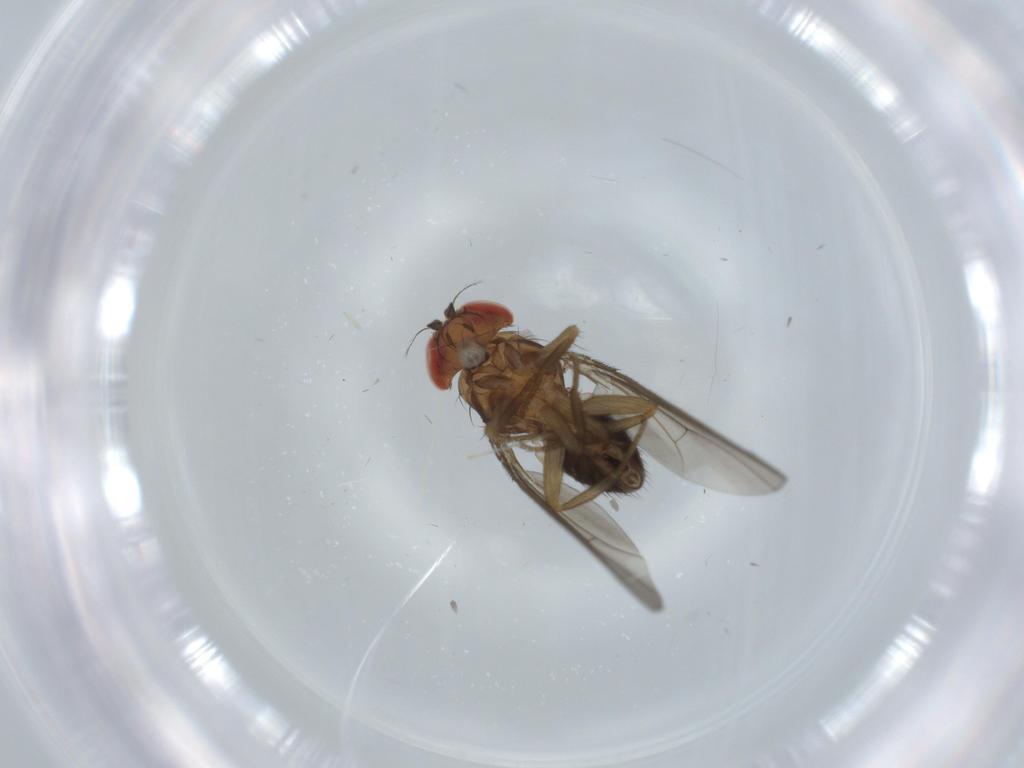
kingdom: Animalia
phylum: Arthropoda
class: Insecta
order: Diptera
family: Drosophilidae
